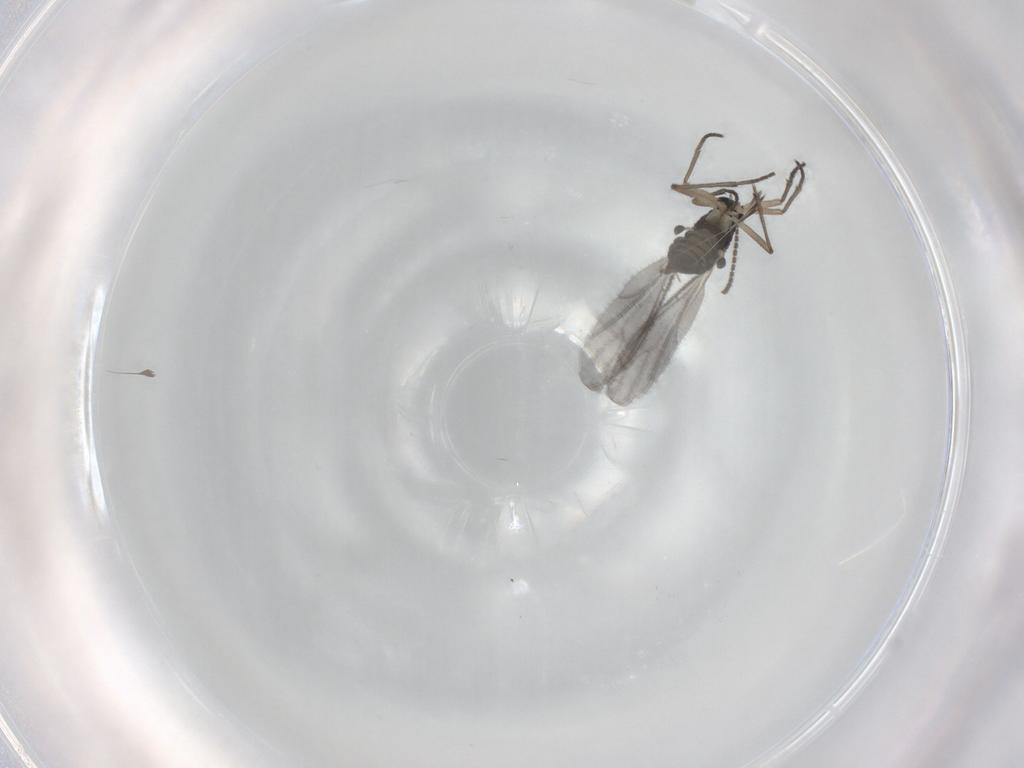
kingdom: Animalia
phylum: Arthropoda
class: Insecta
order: Diptera
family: Sciaridae
